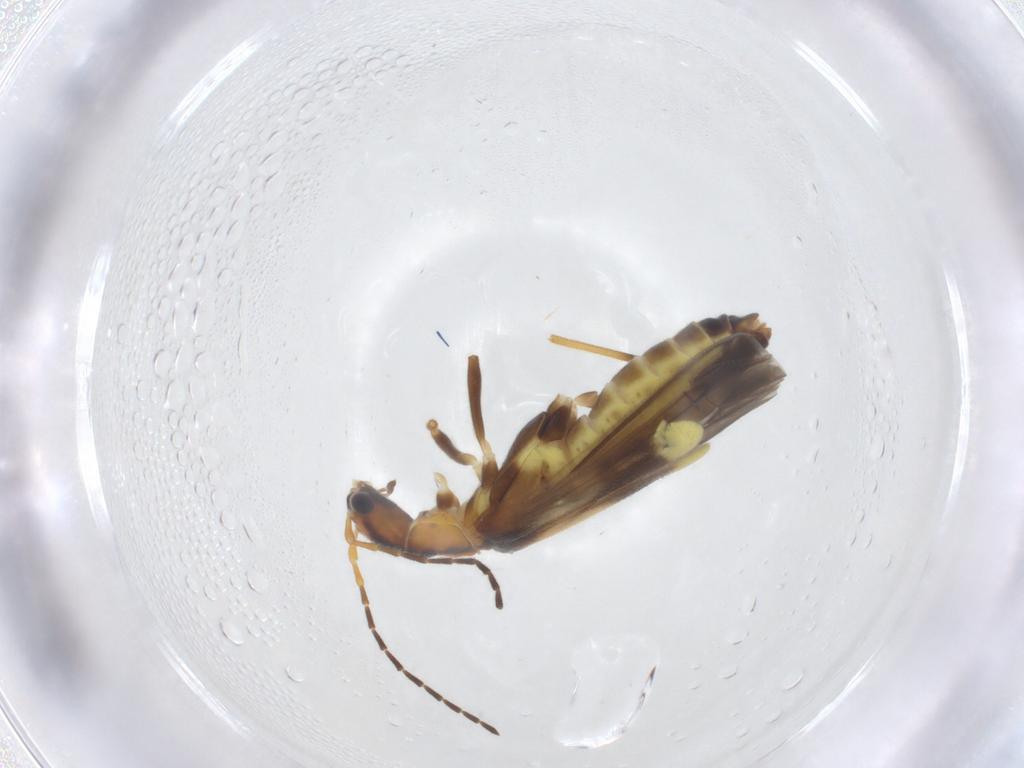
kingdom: Animalia
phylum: Arthropoda
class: Insecta
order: Coleoptera
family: Cantharidae
